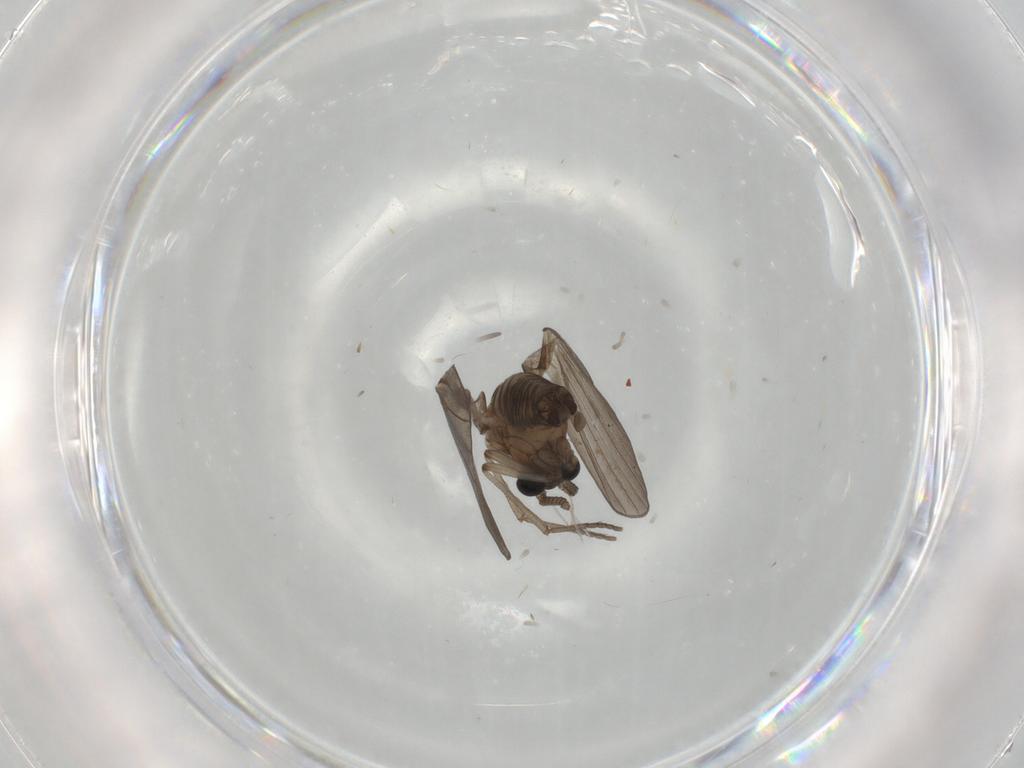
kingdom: Animalia
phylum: Arthropoda
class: Insecta
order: Diptera
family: Psychodidae
